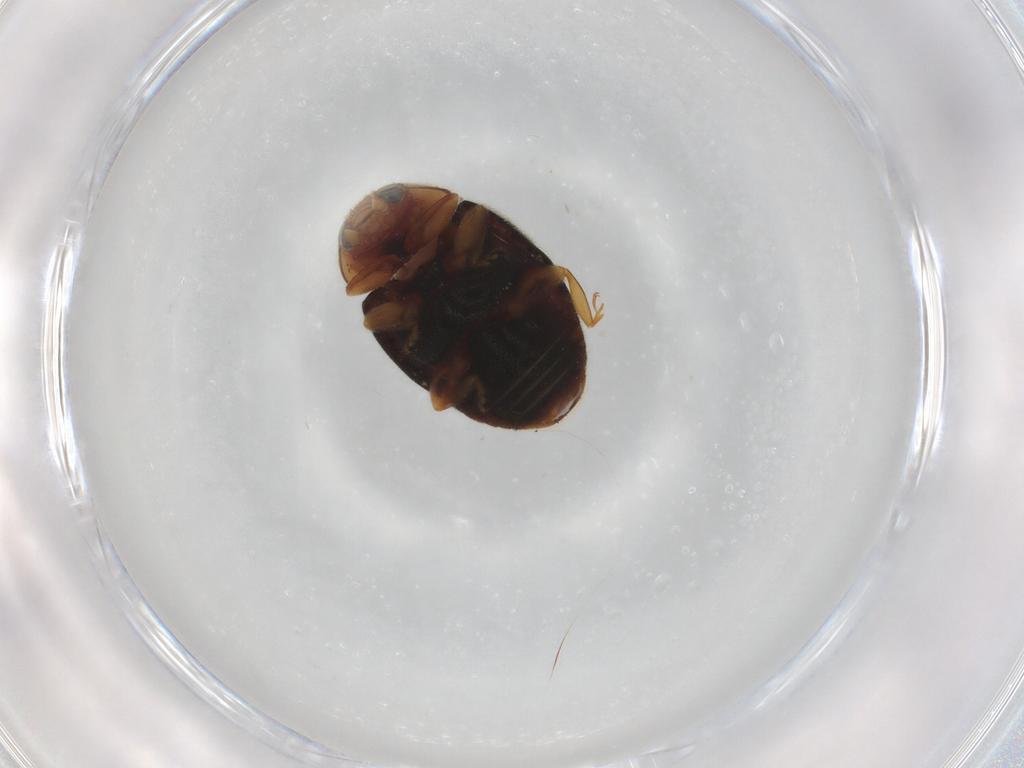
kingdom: Animalia
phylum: Arthropoda
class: Insecta
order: Coleoptera
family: Coccinellidae
